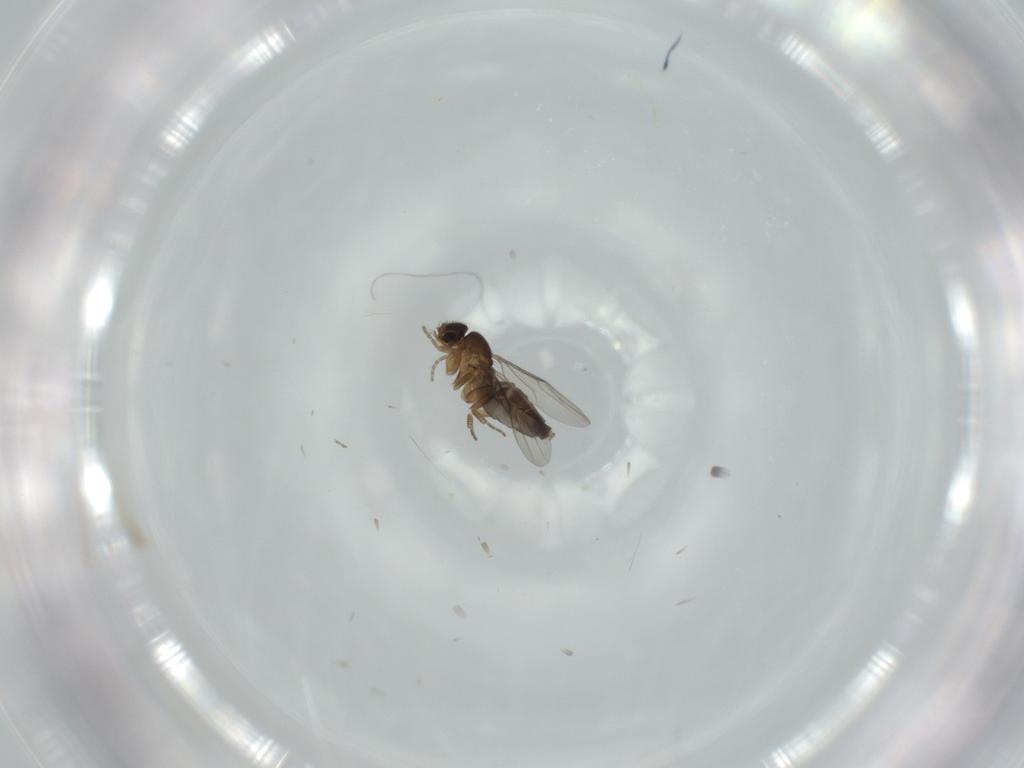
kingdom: Animalia
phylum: Arthropoda
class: Insecta
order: Diptera
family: Phoridae
